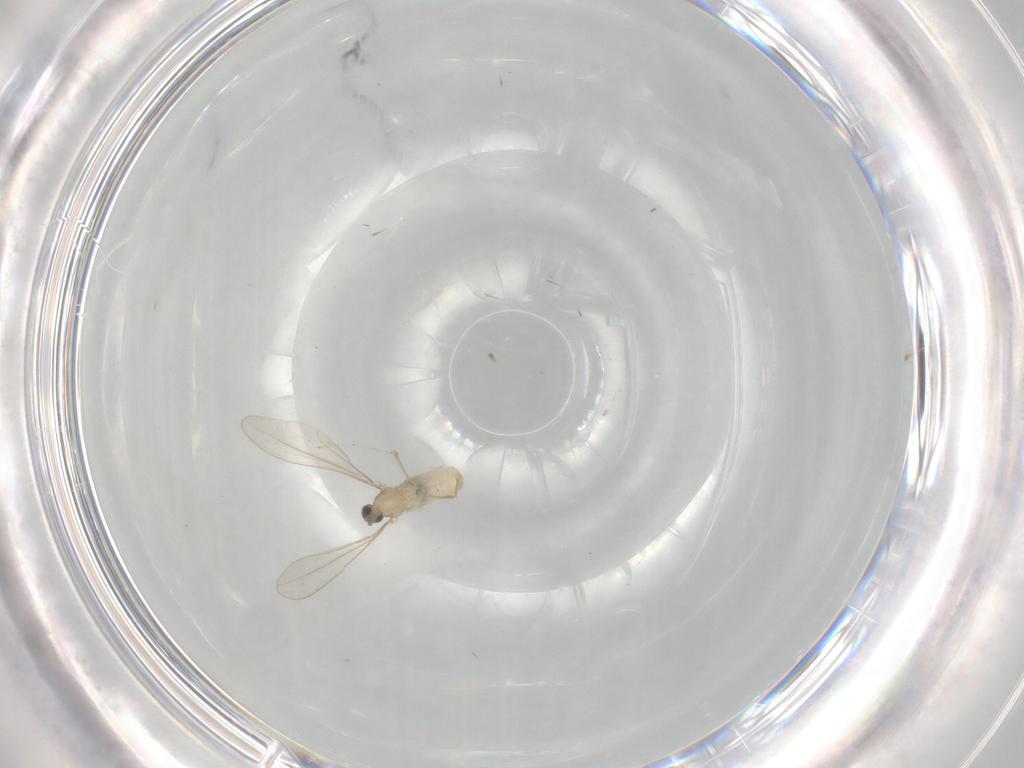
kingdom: Animalia
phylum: Arthropoda
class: Insecta
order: Diptera
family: Cecidomyiidae
